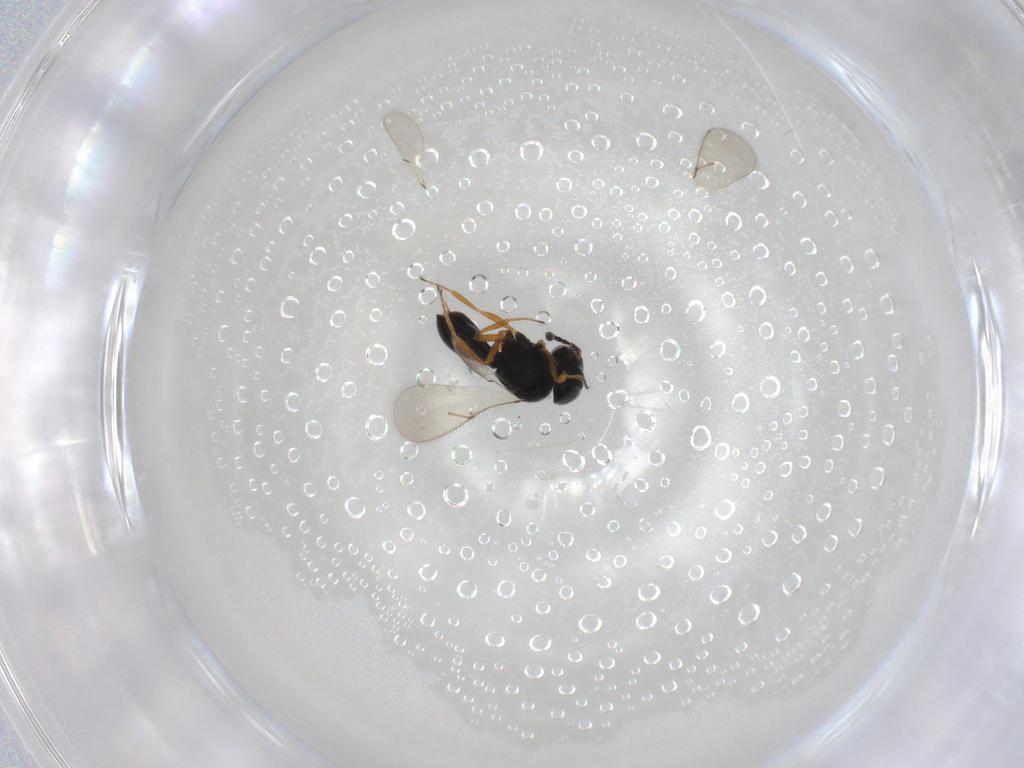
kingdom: Animalia
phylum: Arthropoda
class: Insecta
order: Hymenoptera
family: Scelionidae
